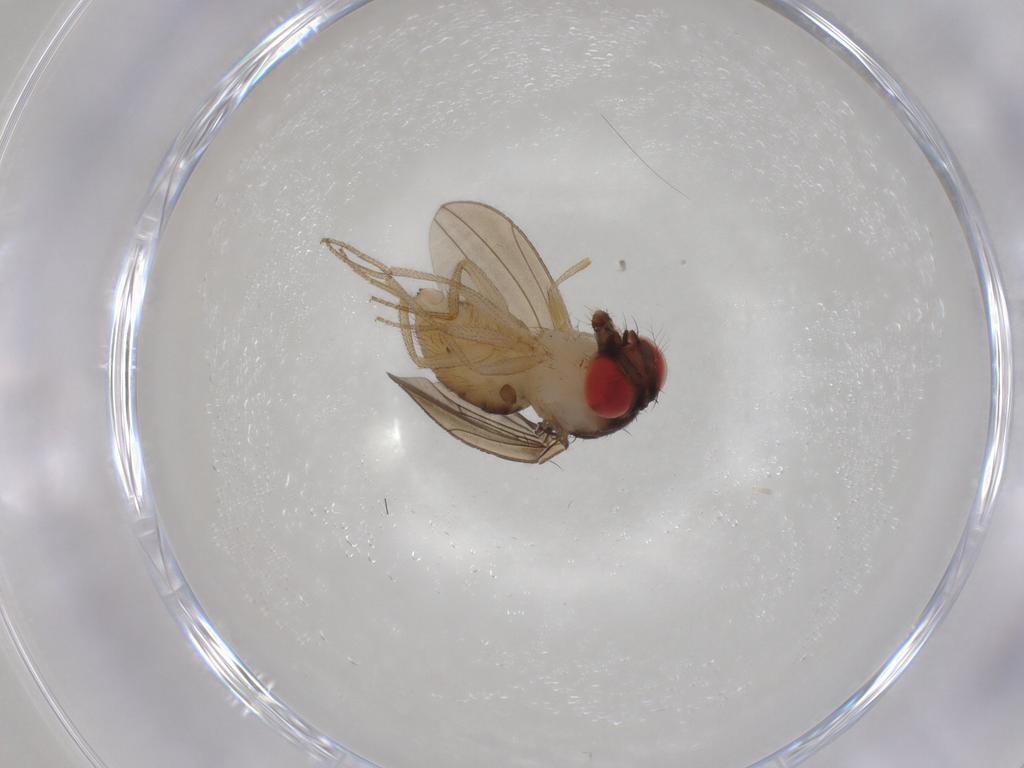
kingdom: Animalia
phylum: Arthropoda
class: Insecta
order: Diptera
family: Drosophilidae
